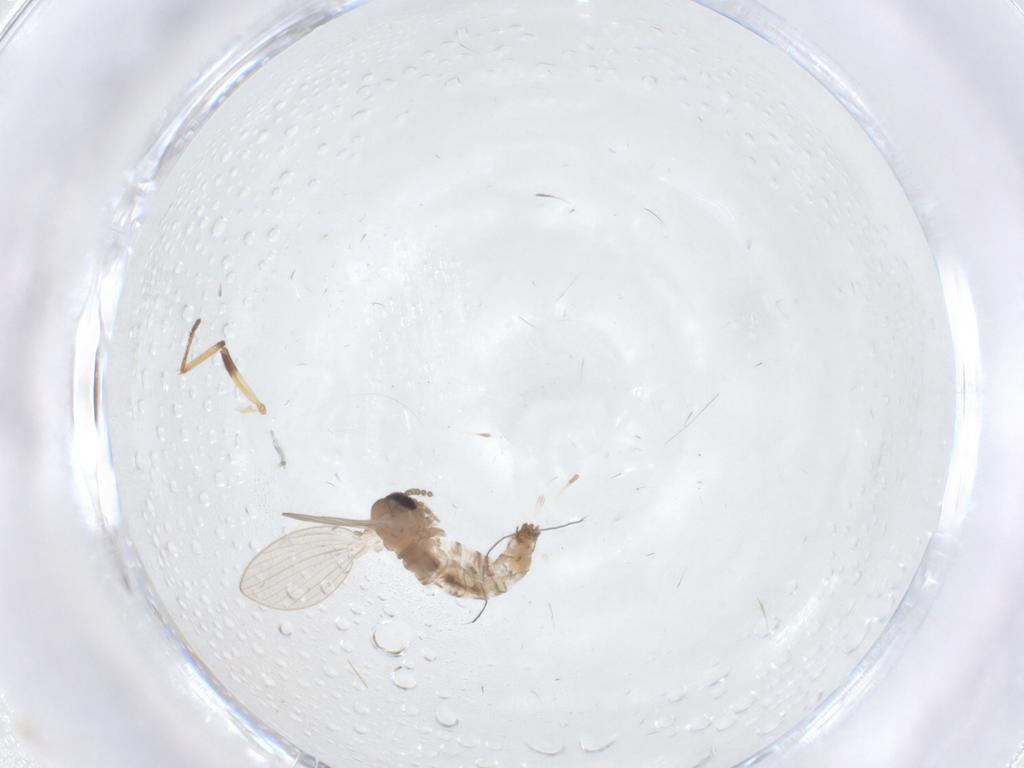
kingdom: Animalia
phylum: Arthropoda
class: Insecta
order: Diptera
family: Psychodidae
